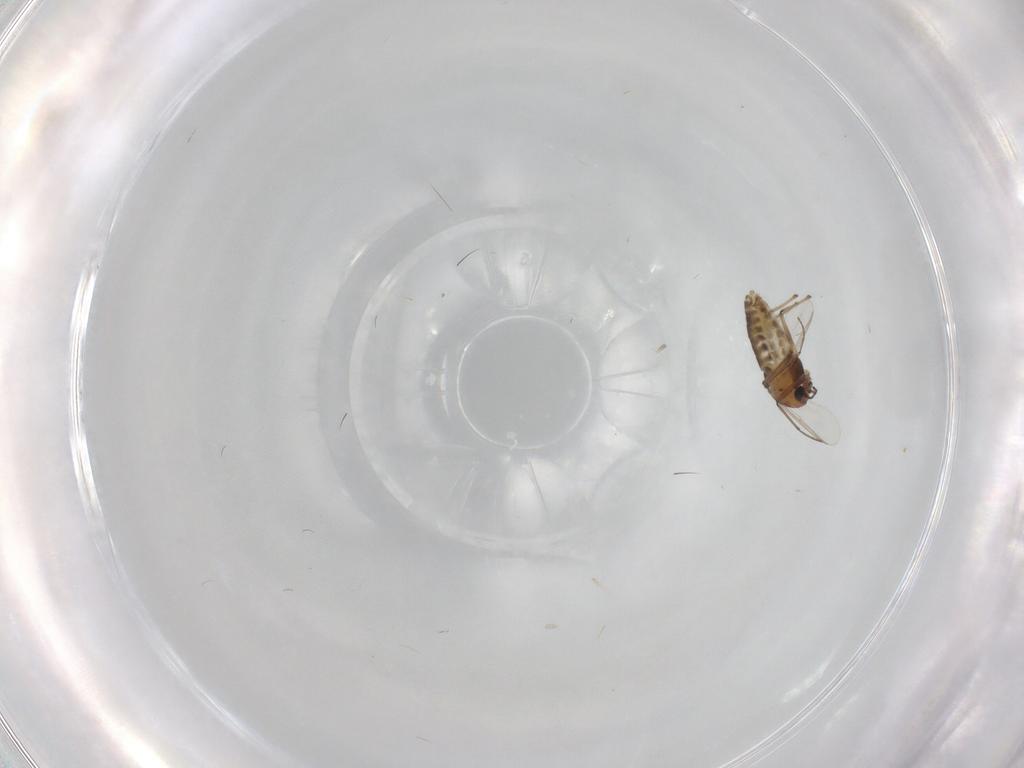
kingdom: Animalia
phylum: Arthropoda
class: Insecta
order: Diptera
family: Chironomidae
